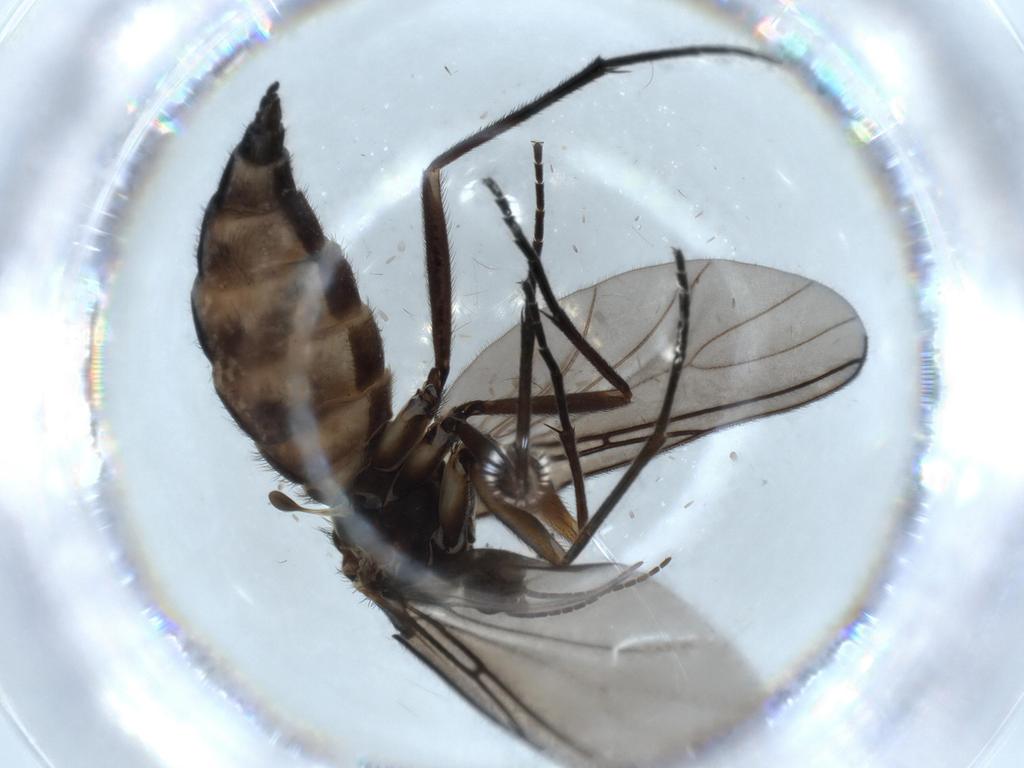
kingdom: Animalia
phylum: Arthropoda
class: Insecta
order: Diptera
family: Sciaridae
